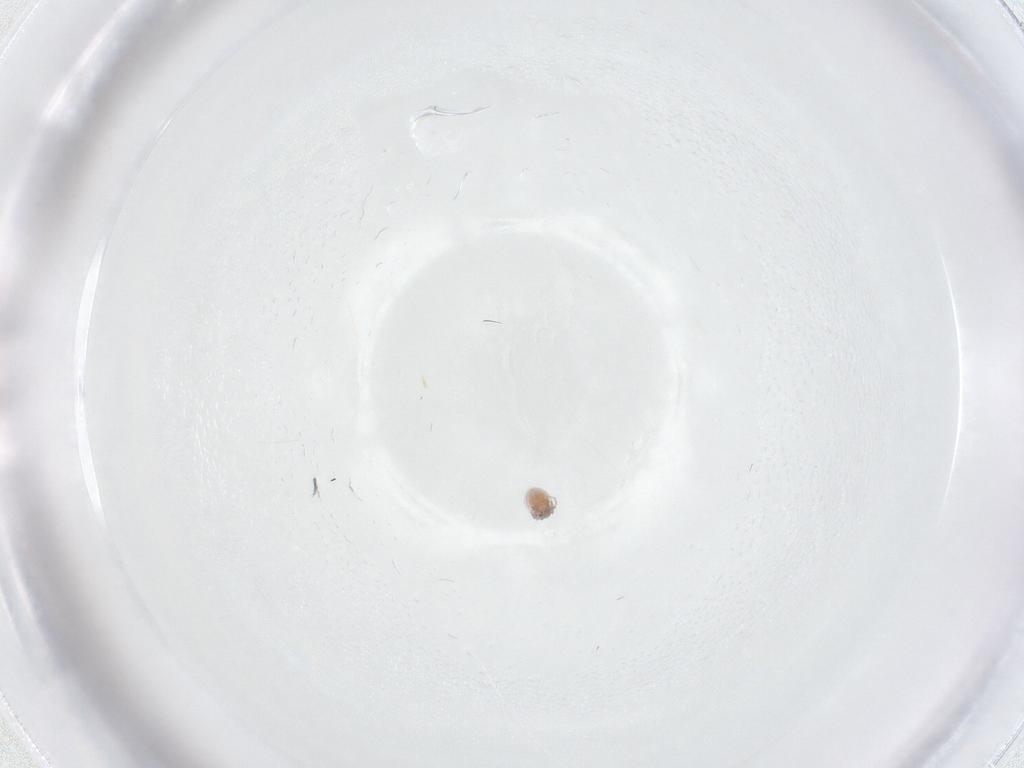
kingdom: Animalia
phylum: Arthropoda
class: Arachnida
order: Trombidiformes
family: Pionidae
